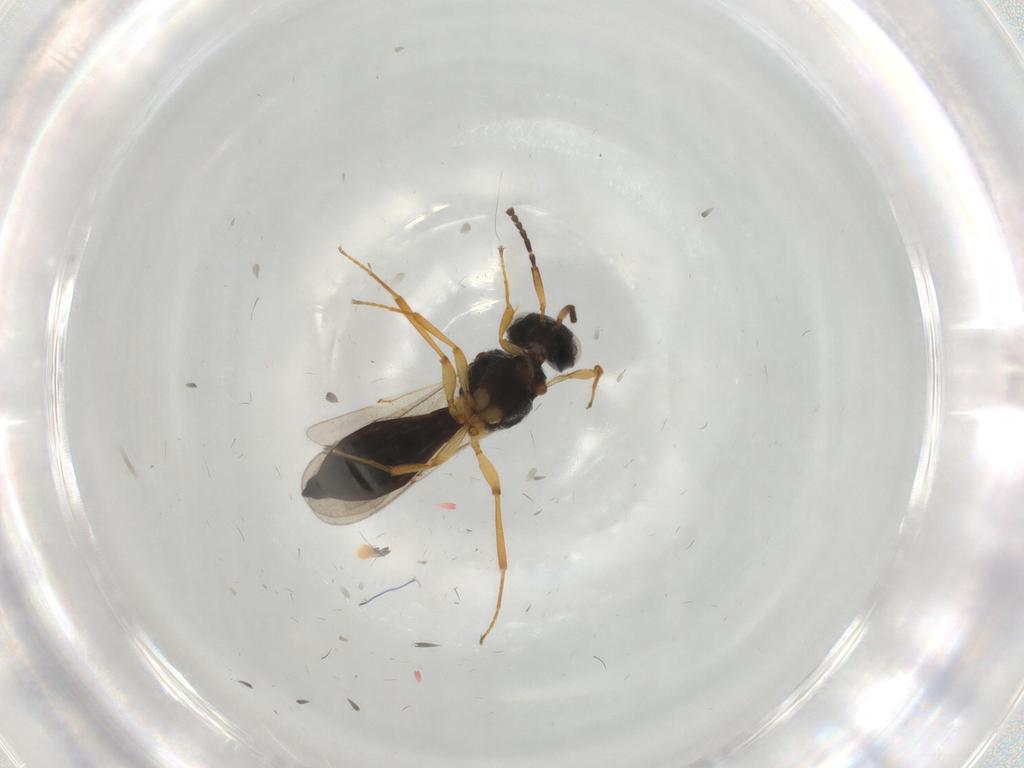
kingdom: Animalia
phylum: Arthropoda
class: Insecta
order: Hymenoptera
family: Scelionidae
